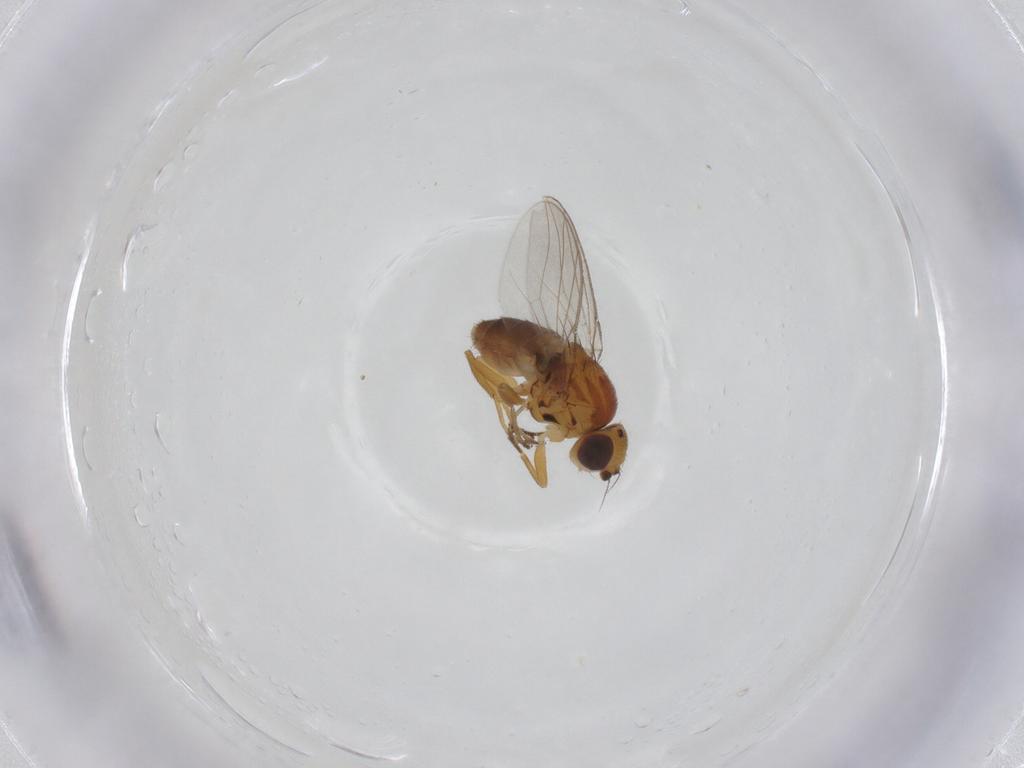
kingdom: Animalia
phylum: Arthropoda
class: Insecta
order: Diptera
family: Chloropidae
